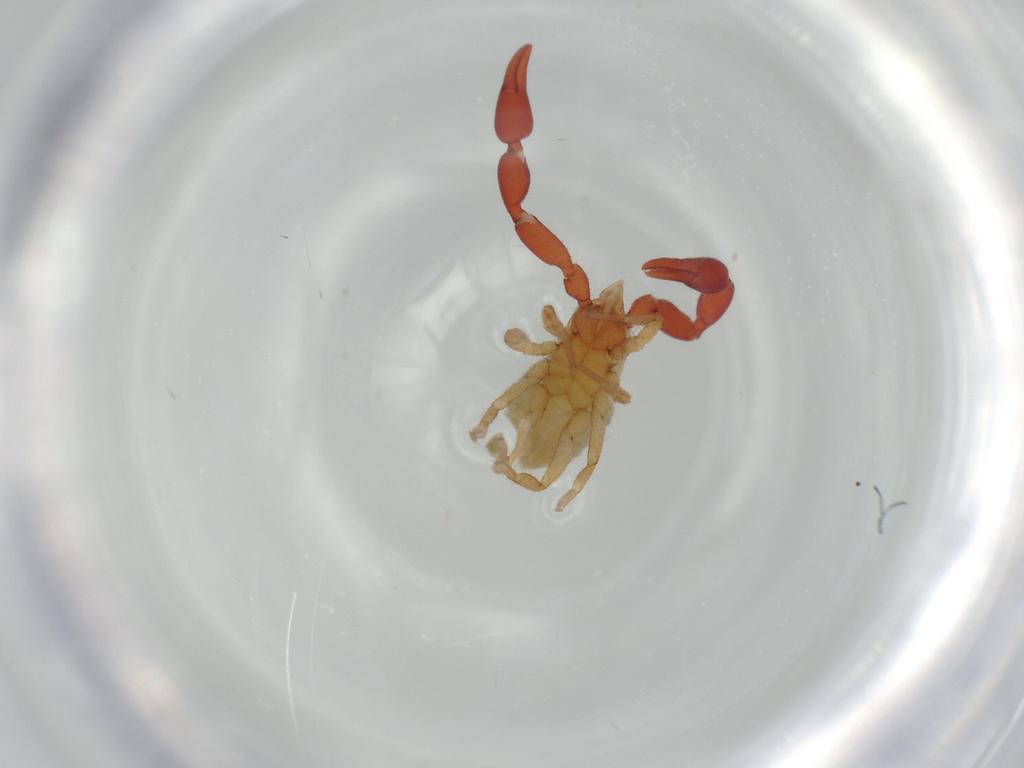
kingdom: Animalia
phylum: Arthropoda
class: Arachnida
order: Pseudoscorpiones
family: Chernetidae
